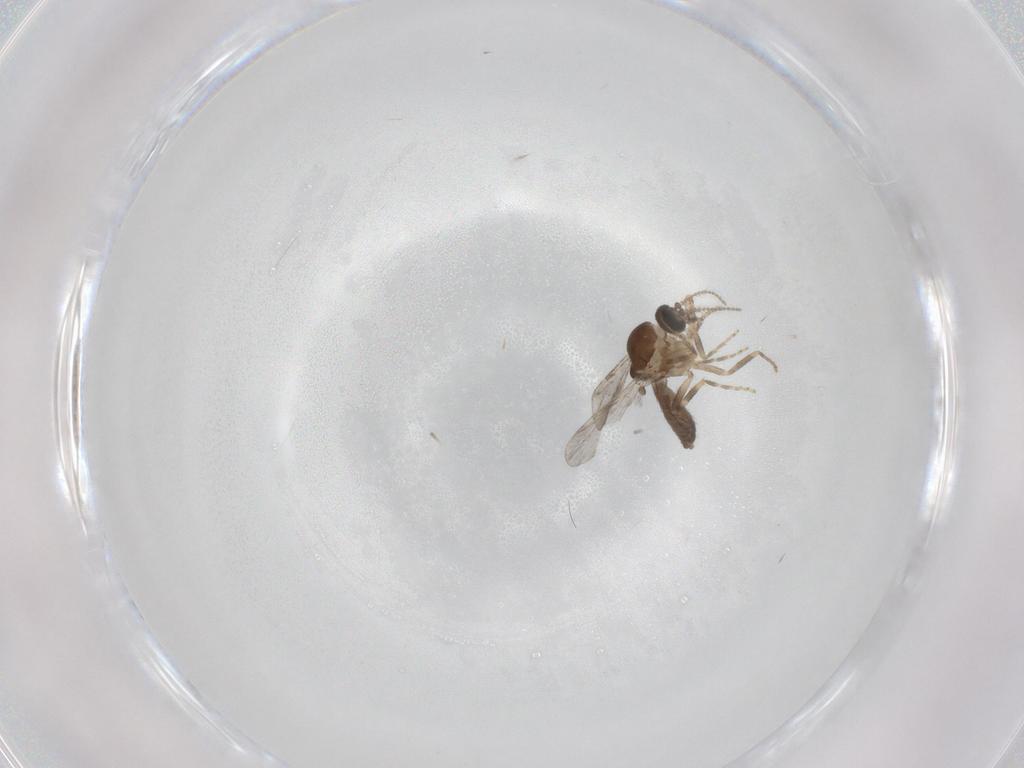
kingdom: Animalia
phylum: Arthropoda
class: Insecta
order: Diptera
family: Ceratopogonidae
